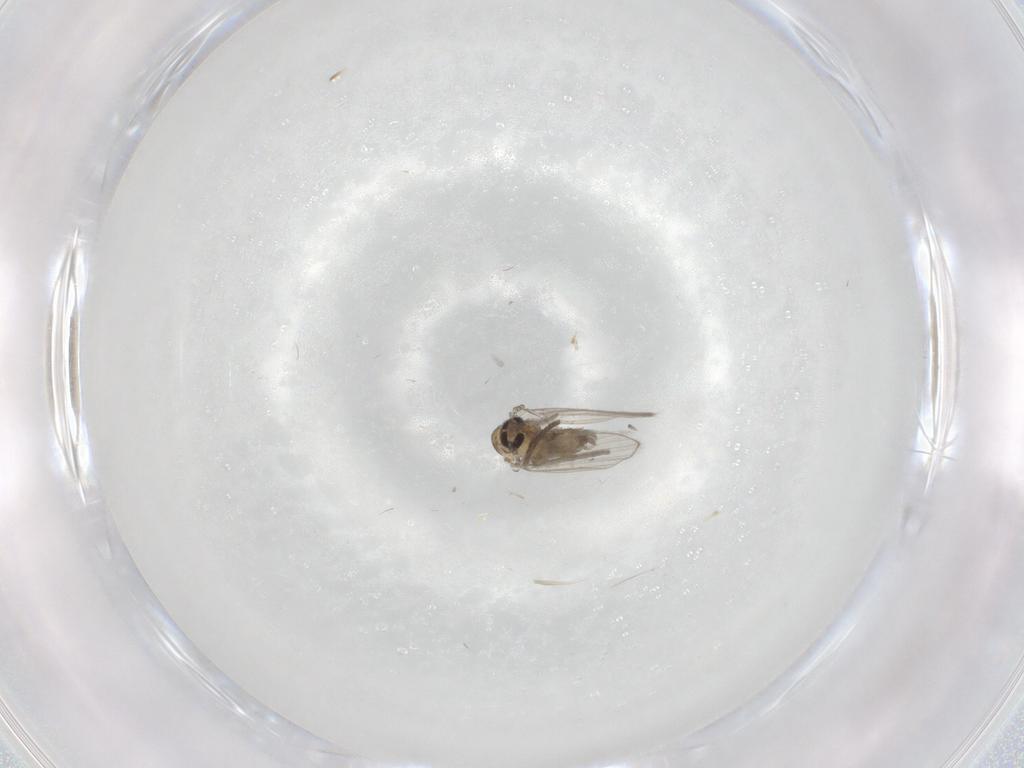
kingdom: Animalia
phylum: Arthropoda
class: Insecta
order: Diptera
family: Psychodidae
